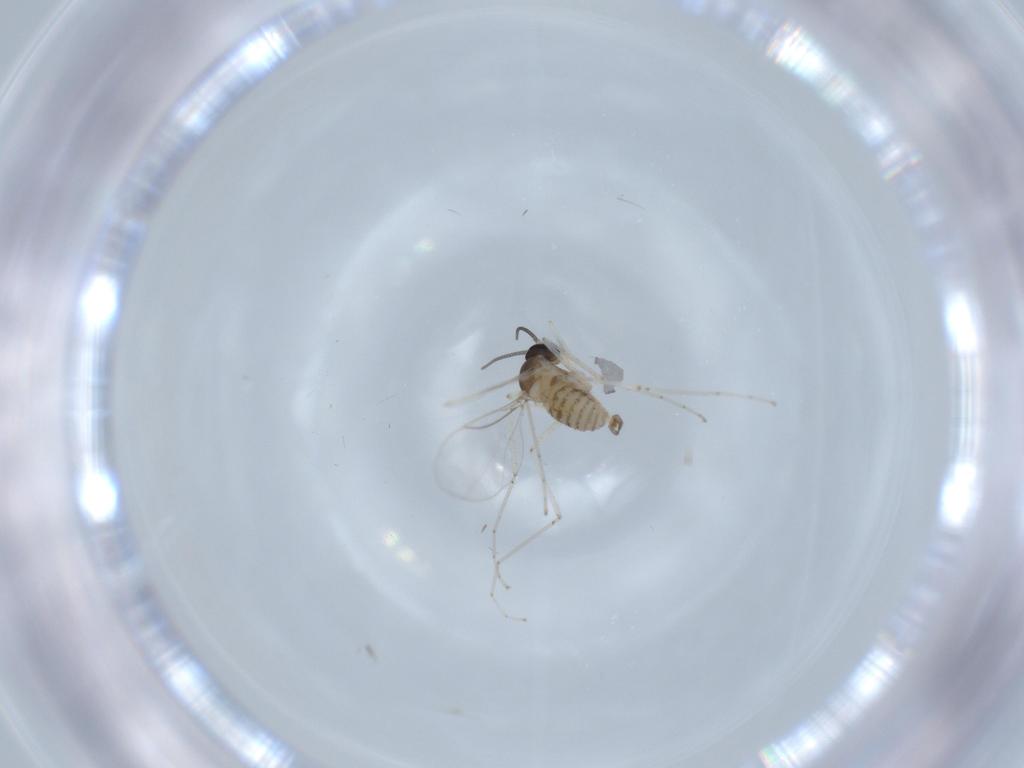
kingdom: Animalia
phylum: Arthropoda
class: Insecta
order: Diptera
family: Cecidomyiidae
